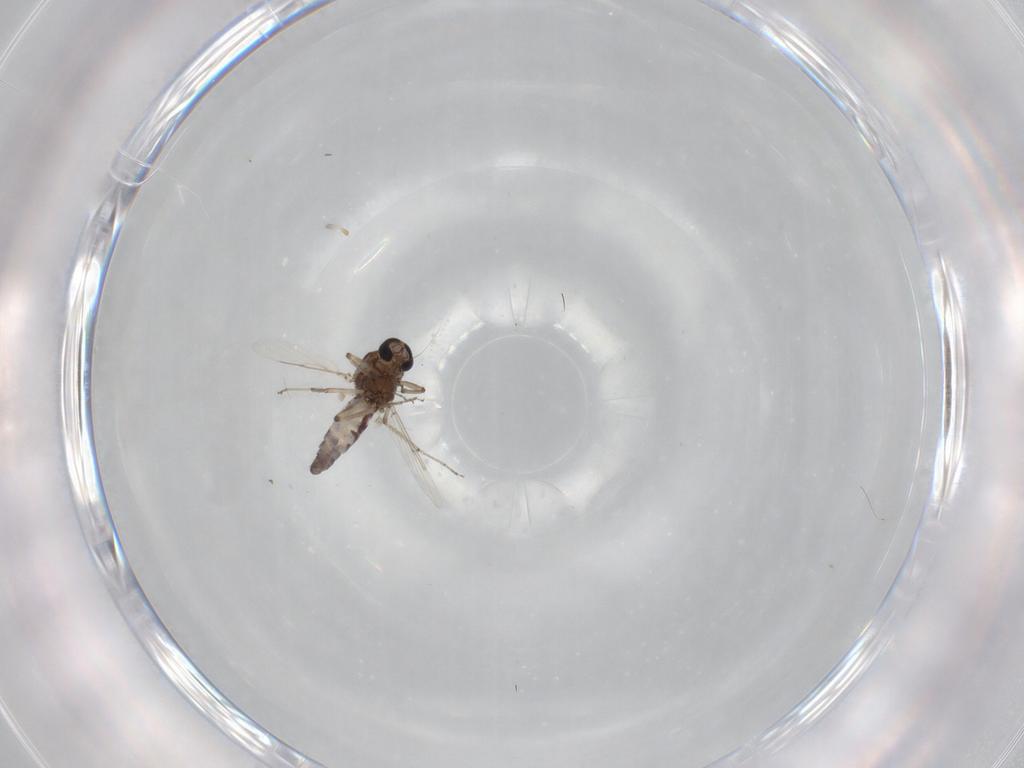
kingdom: Animalia
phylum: Arthropoda
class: Insecta
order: Diptera
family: Ceratopogonidae
